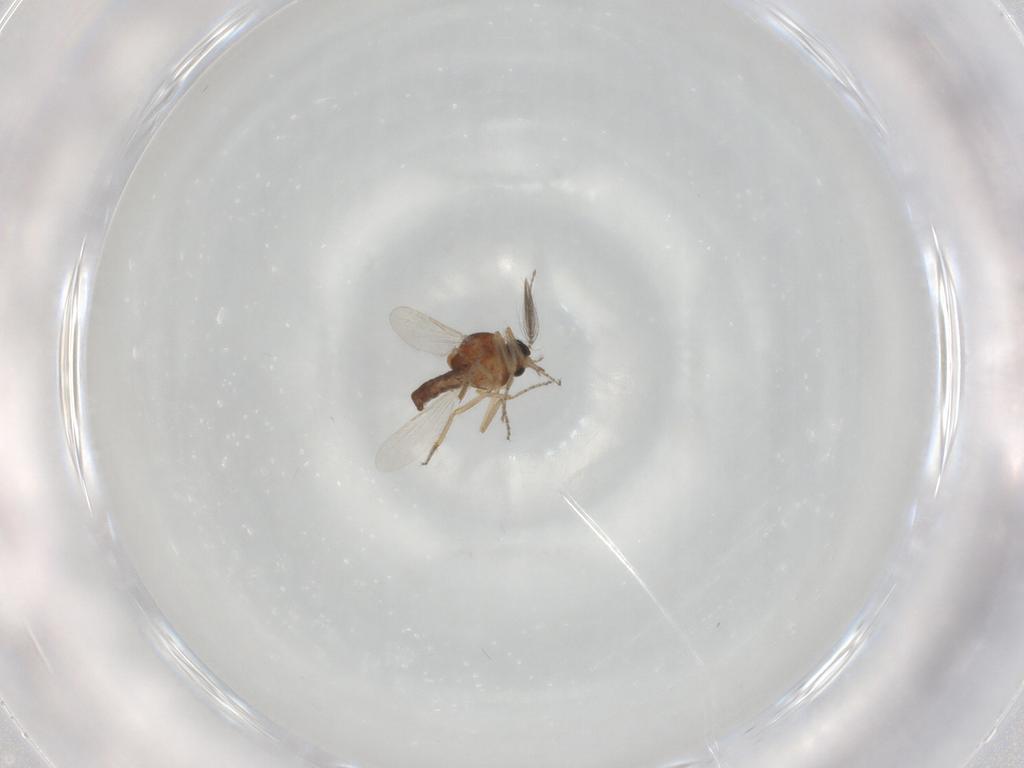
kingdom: Animalia
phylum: Arthropoda
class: Insecta
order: Diptera
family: Ceratopogonidae
